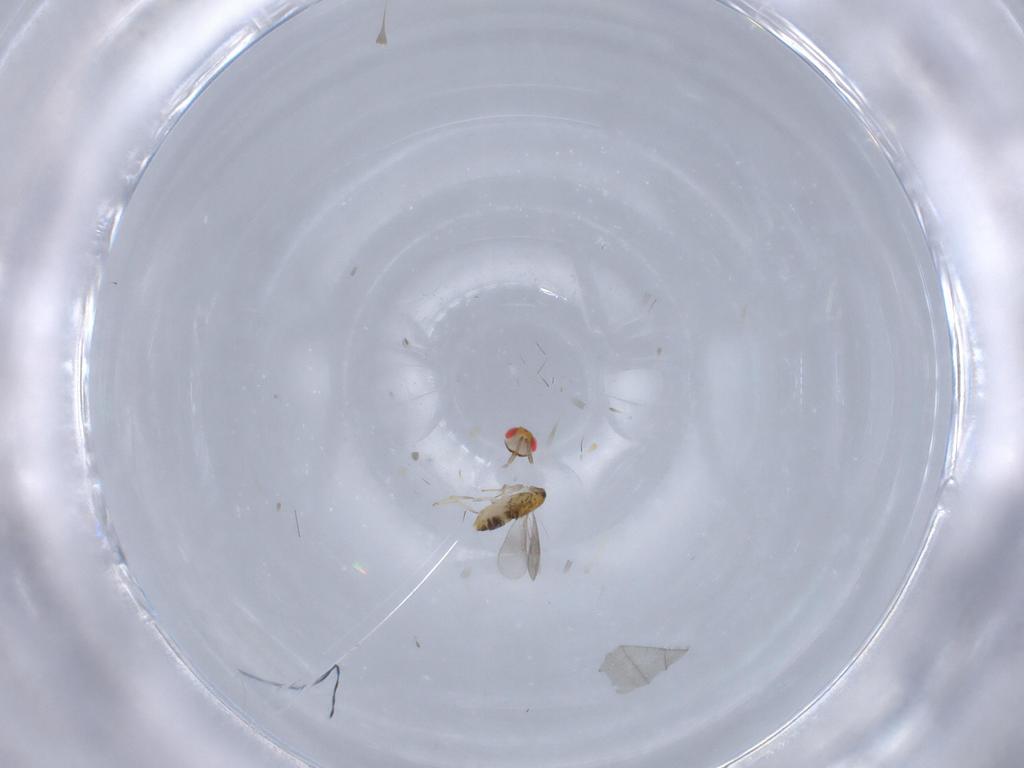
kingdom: Animalia
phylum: Arthropoda
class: Insecta
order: Hymenoptera
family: Aphelinidae
